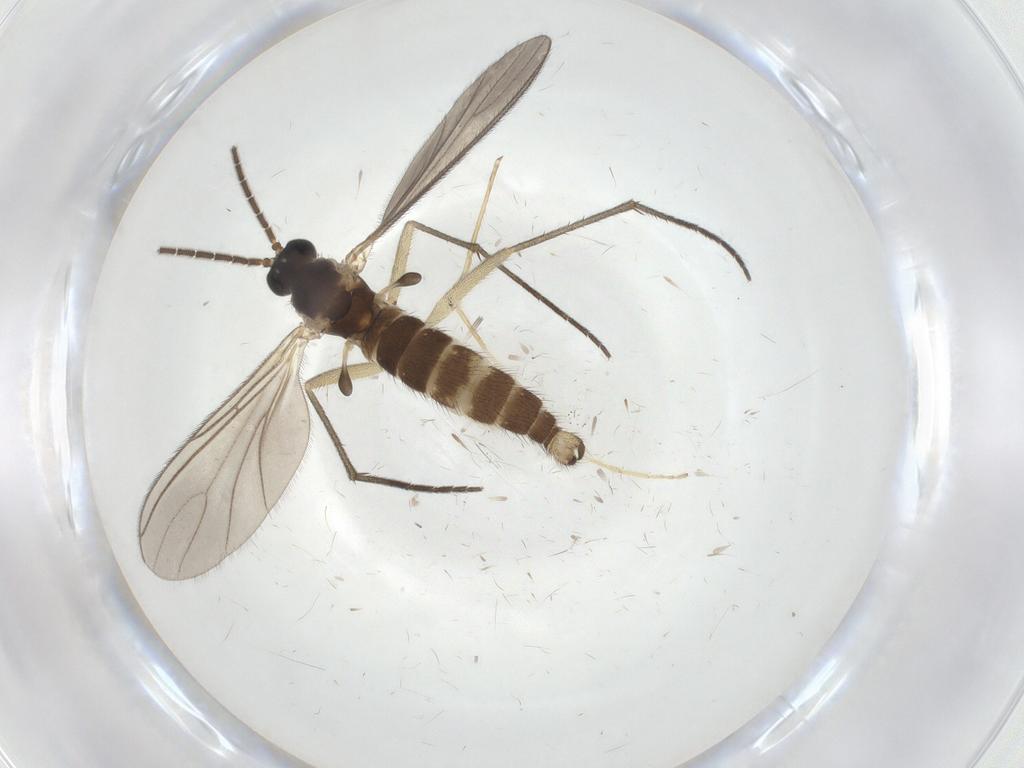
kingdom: Animalia
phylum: Arthropoda
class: Insecta
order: Diptera
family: Sciaridae
